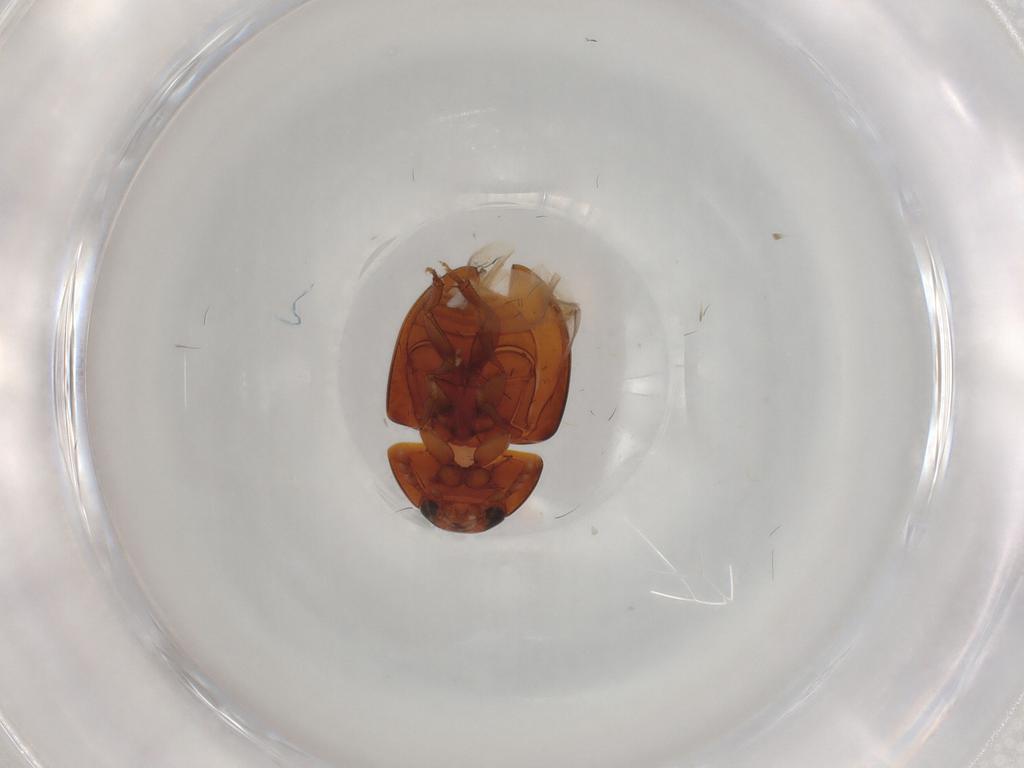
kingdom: Animalia
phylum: Arthropoda
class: Insecta
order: Coleoptera
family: Phalacridae
